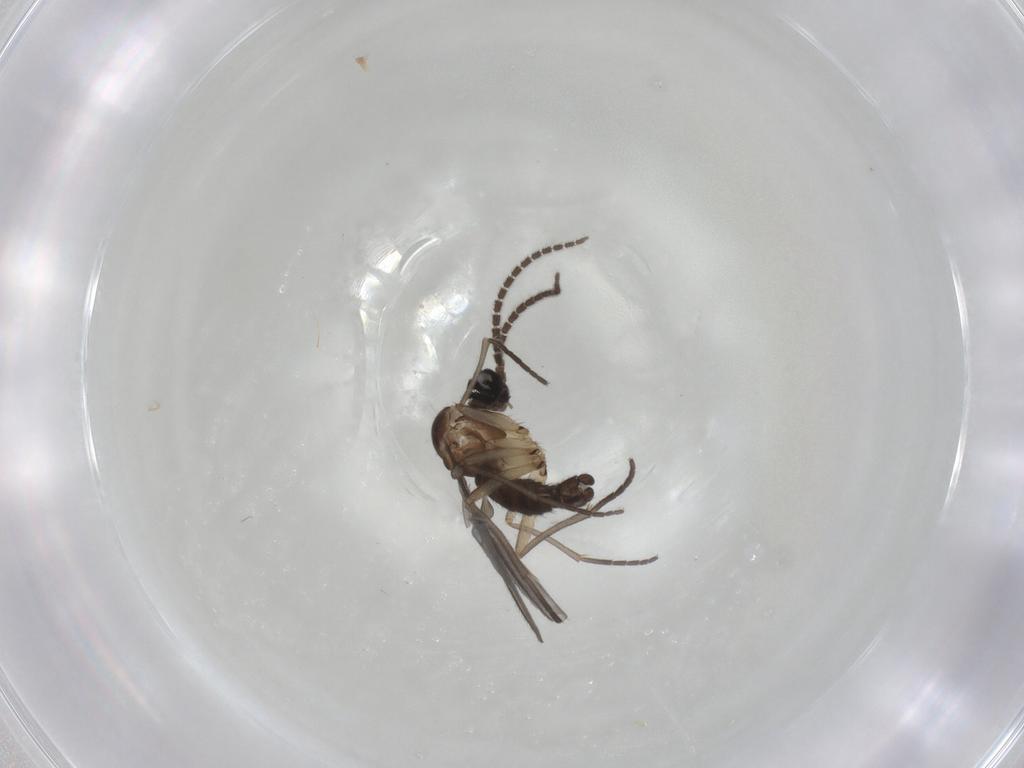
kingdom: Animalia
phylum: Arthropoda
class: Insecta
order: Diptera
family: Sciaridae
